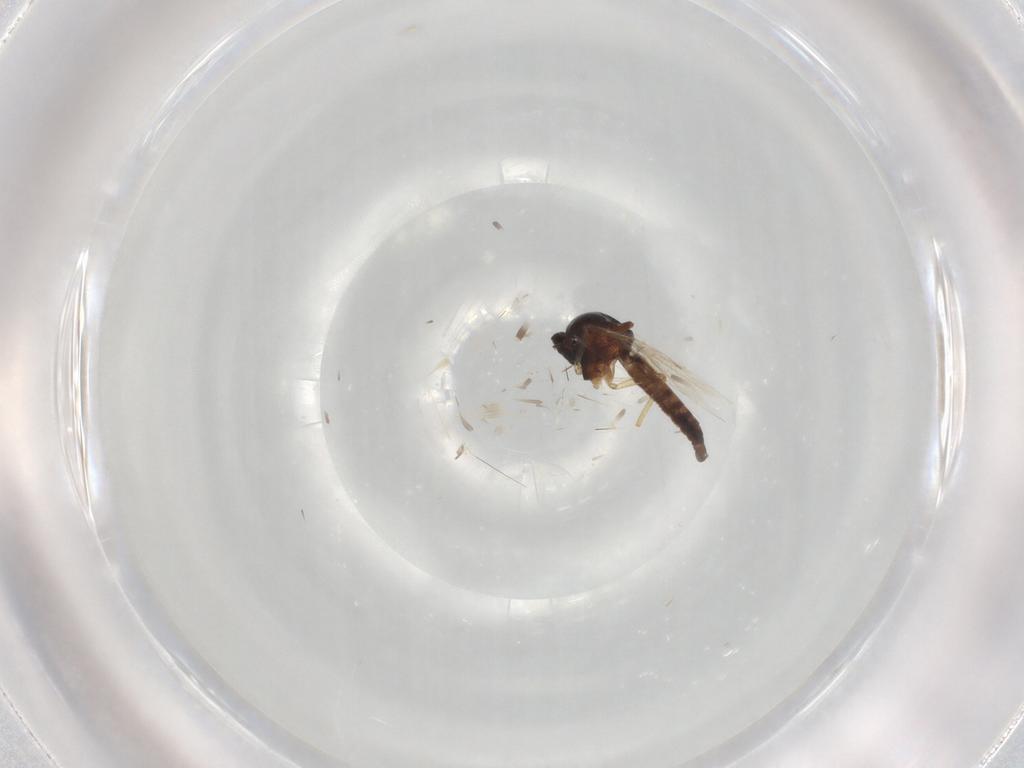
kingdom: Animalia
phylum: Arthropoda
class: Insecta
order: Diptera
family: Ceratopogonidae
